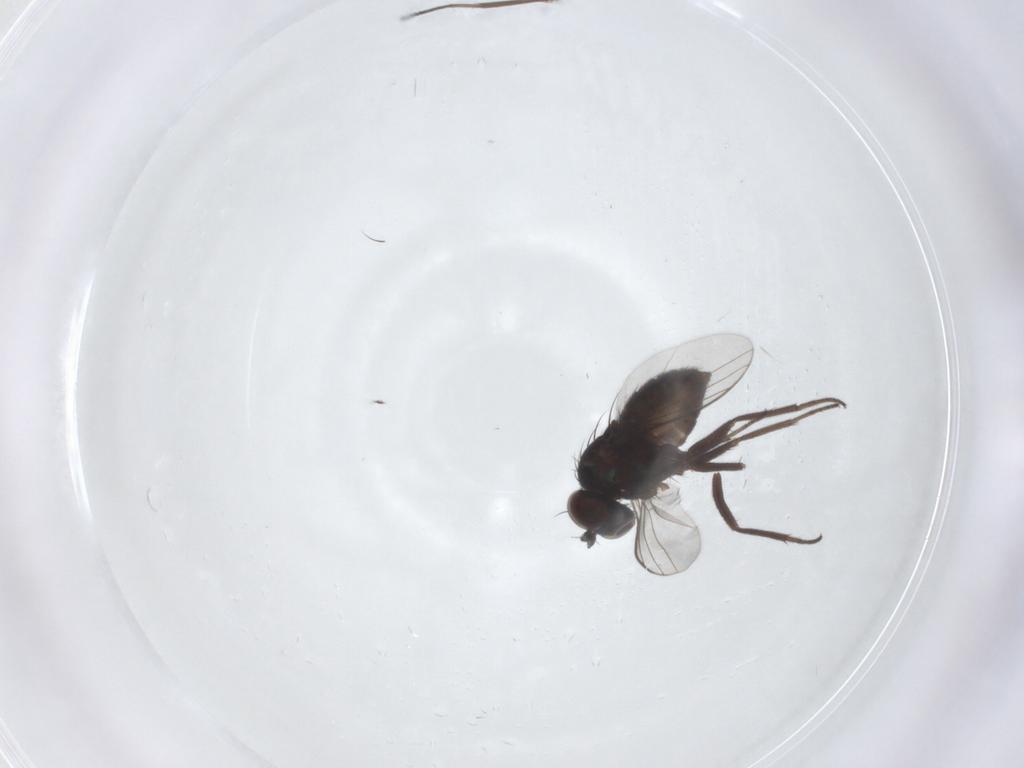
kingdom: Animalia
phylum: Arthropoda
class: Insecta
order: Diptera
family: Dolichopodidae
